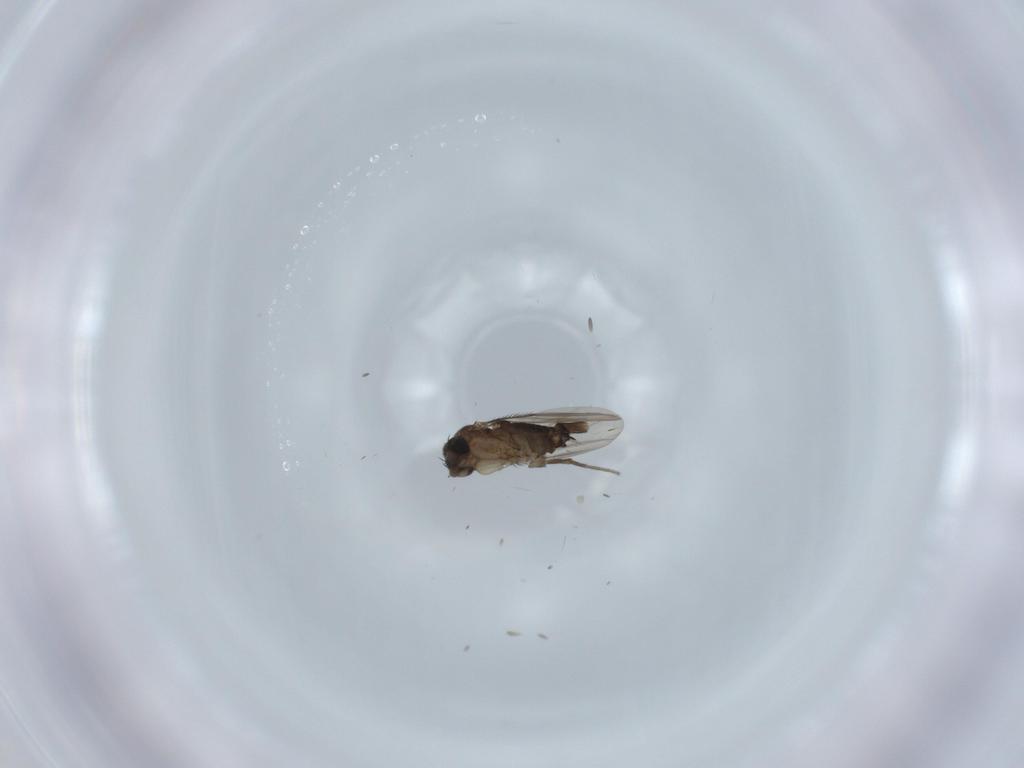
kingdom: Animalia
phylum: Arthropoda
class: Insecta
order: Diptera
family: Phoridae
